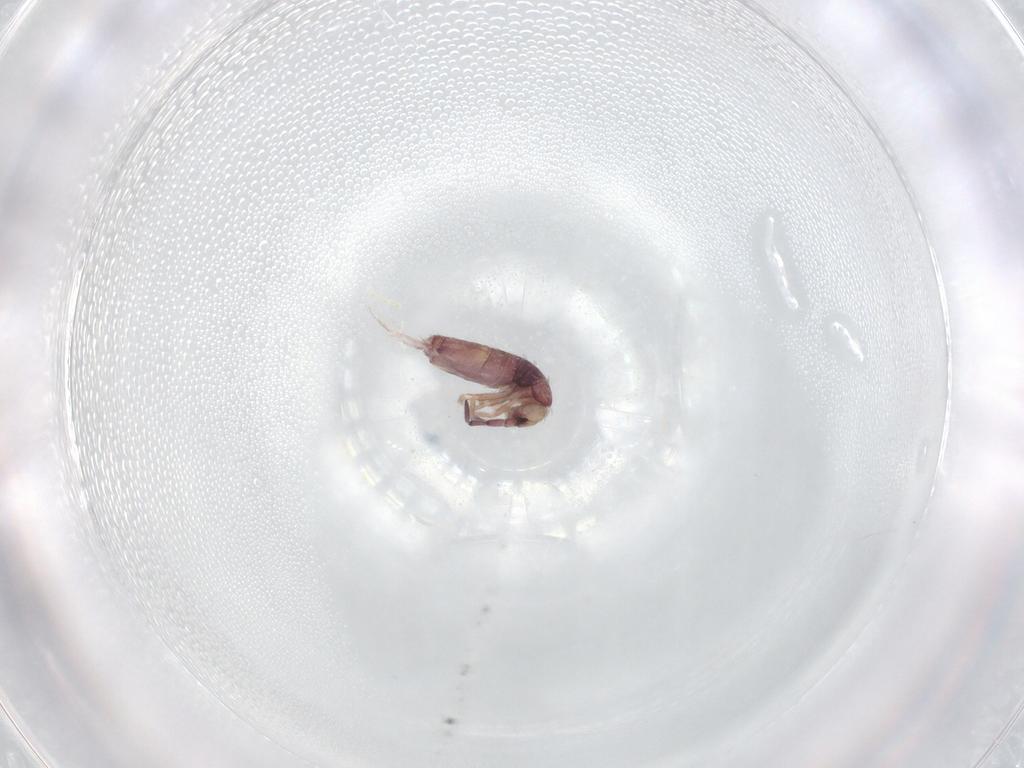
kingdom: Animalia
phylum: Arthropoda
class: Collembola
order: Entomobryomorpha
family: Entomobryidae
